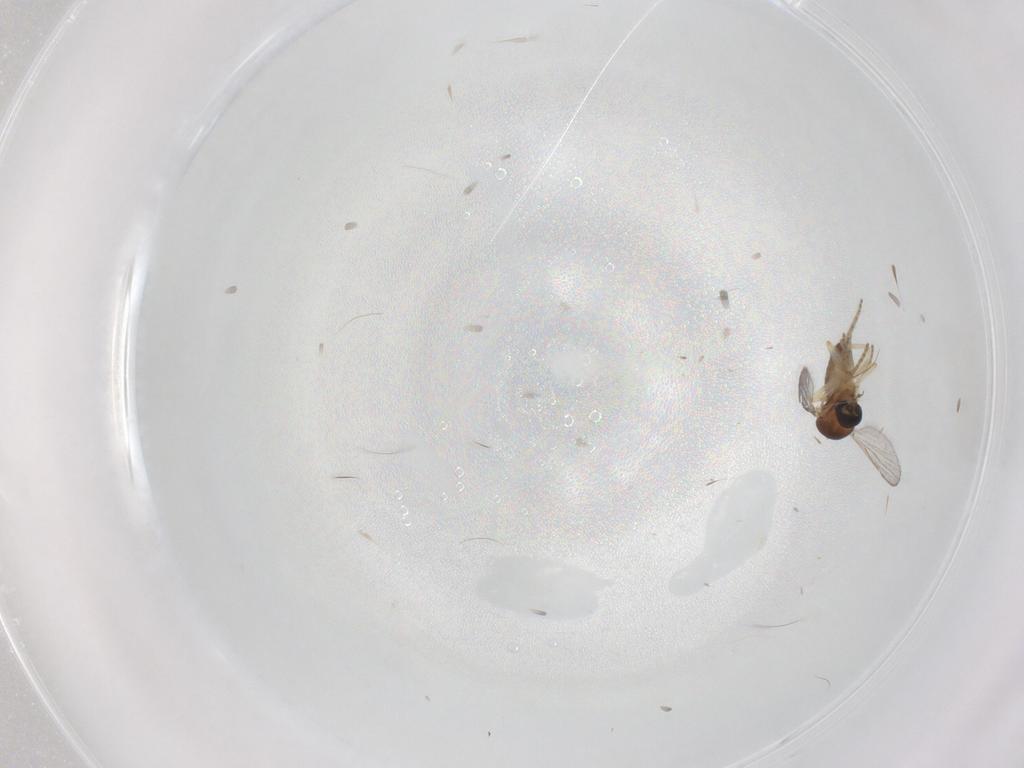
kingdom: Animalia
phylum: Arthropoda
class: Insecta
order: Diptera
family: Ceratopogonidae
